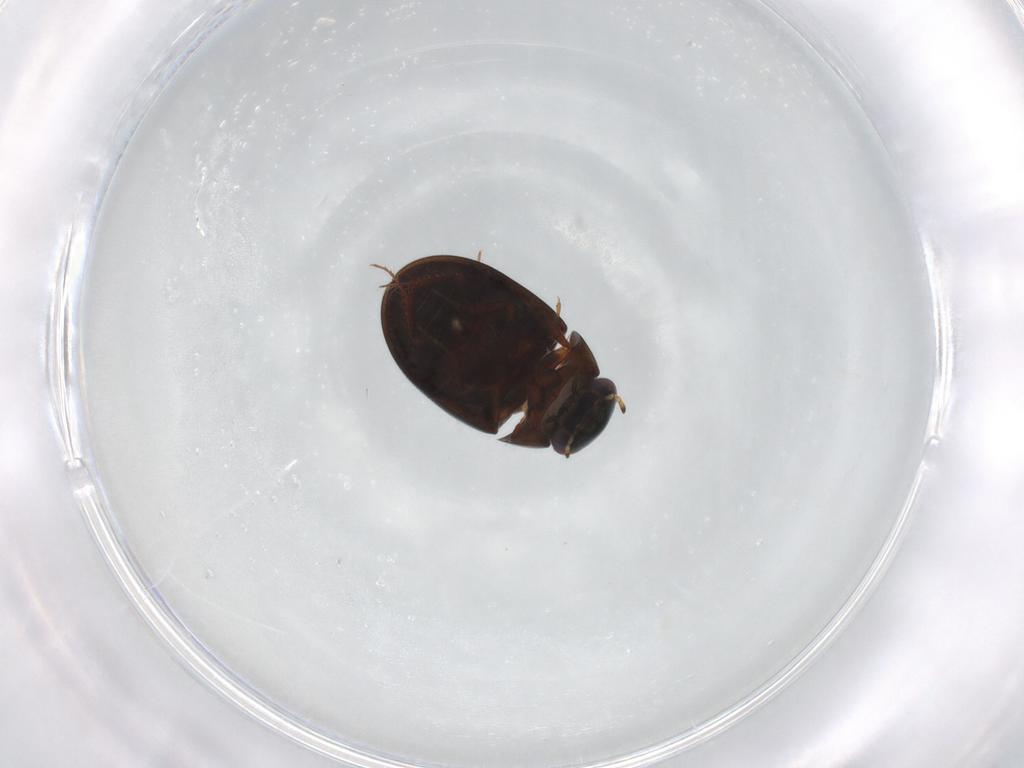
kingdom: Animalia
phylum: Arthropoda
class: Insecta
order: Coleoptera
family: Hydrophilidae
